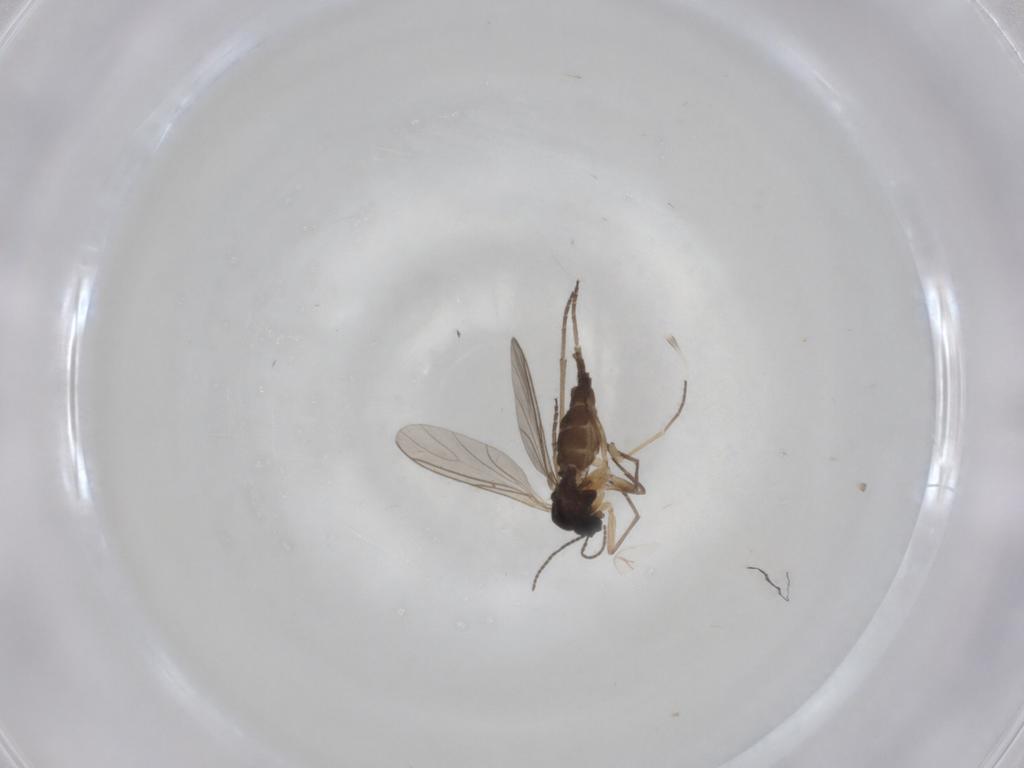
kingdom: Animalia
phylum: Arthropoda
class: Insecta
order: Diptera
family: Sciaridae
